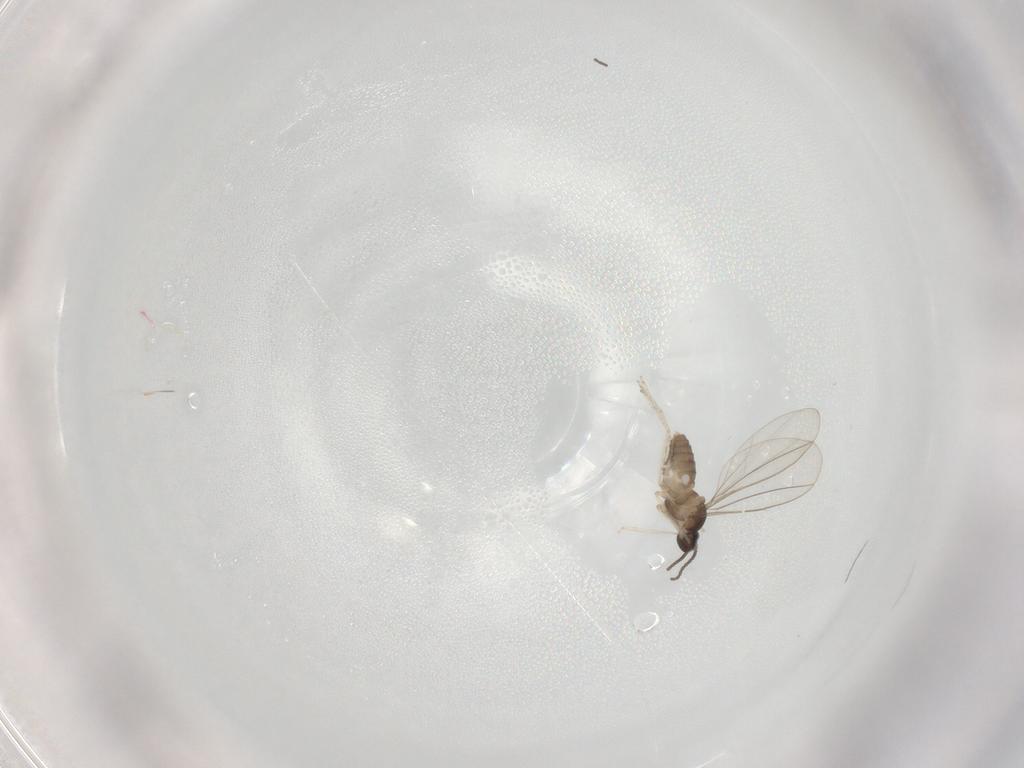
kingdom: Animalia
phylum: Arthropoda
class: Insecta
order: Diptera
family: Cecidomyiidae
